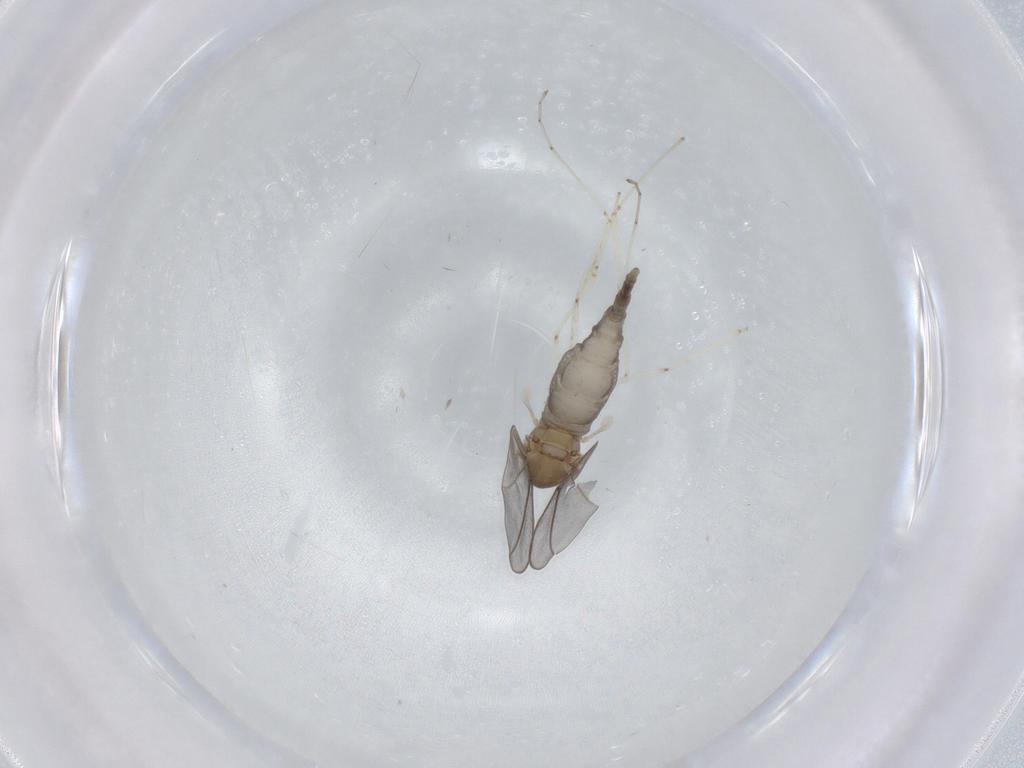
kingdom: Animalia
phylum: Arthropoda
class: Insecta
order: Diptera
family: Cecidomyiidae
